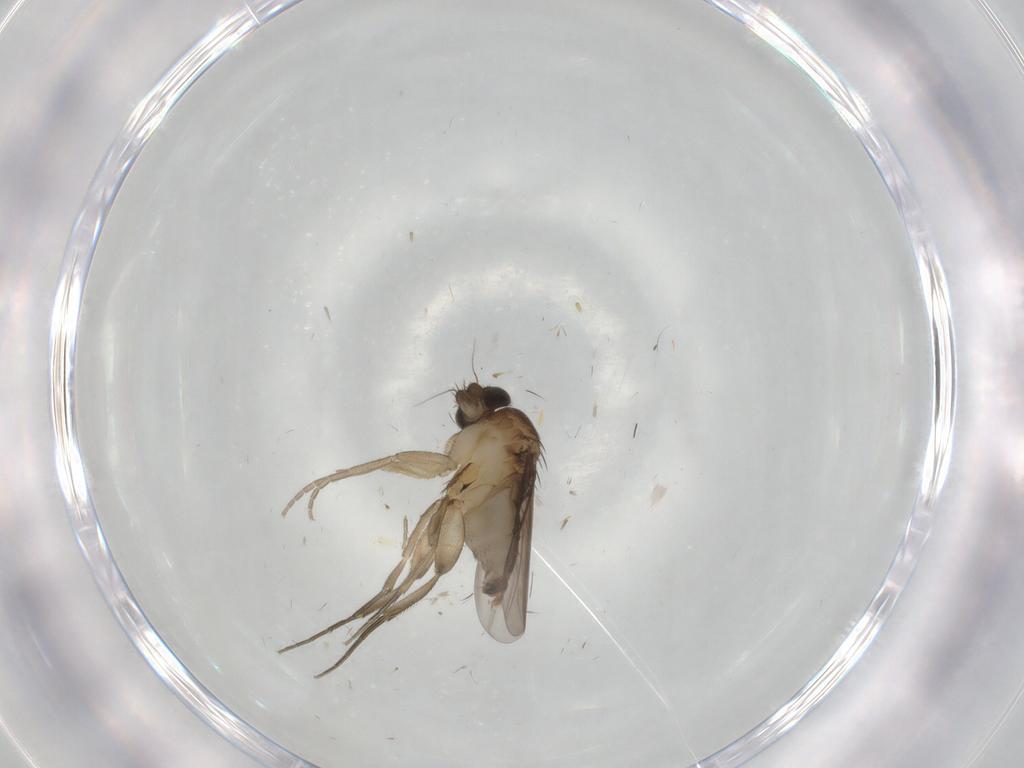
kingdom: Animalia
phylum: Arthropoda
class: Insecta
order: Diptera
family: Phoridae
